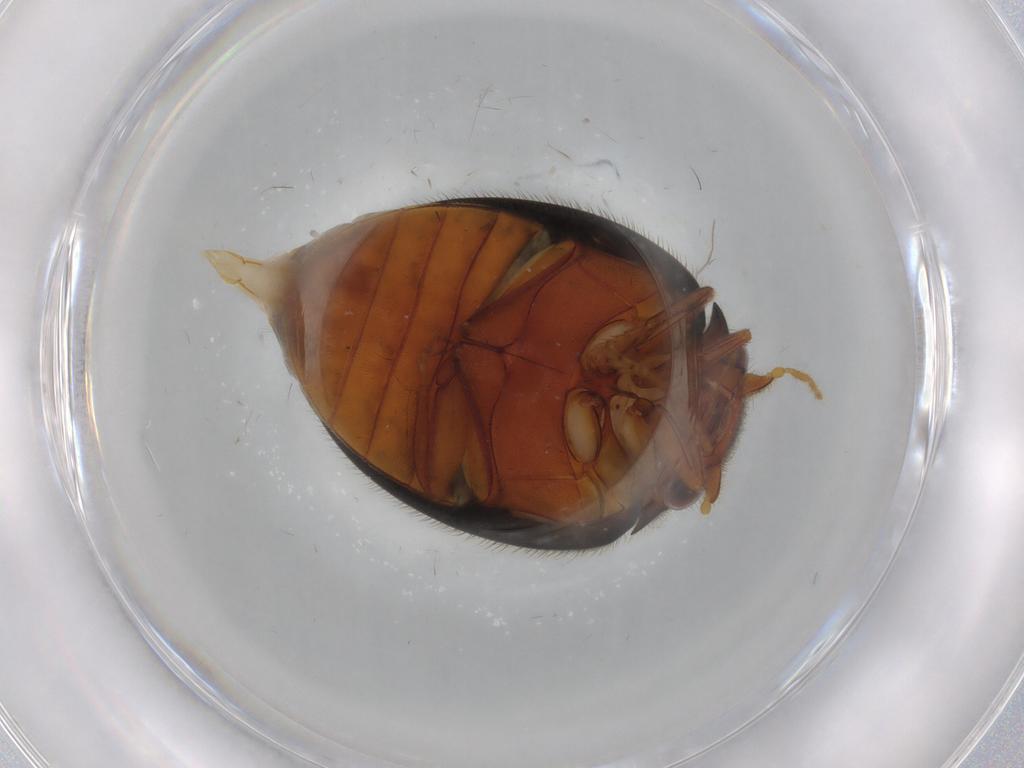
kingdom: Animalia
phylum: Arthropoda
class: Insecta
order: Coleoptera
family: Scirtidae
